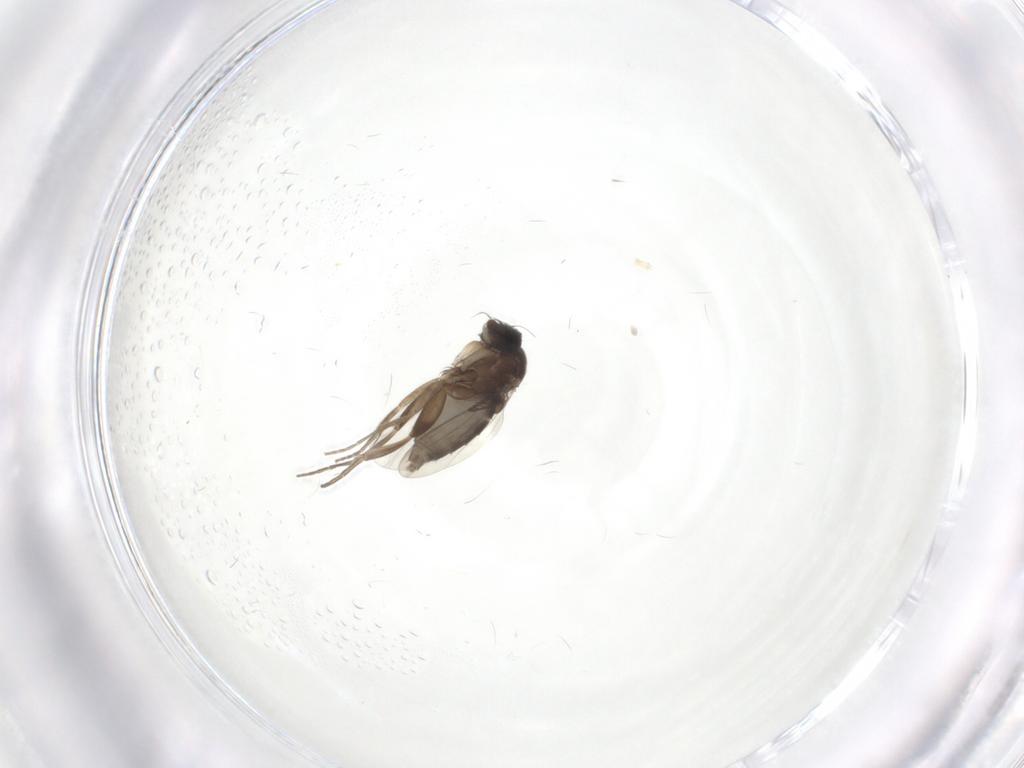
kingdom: Animalia
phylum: Arthropoda
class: Insecta
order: Diptera
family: Phoridae
